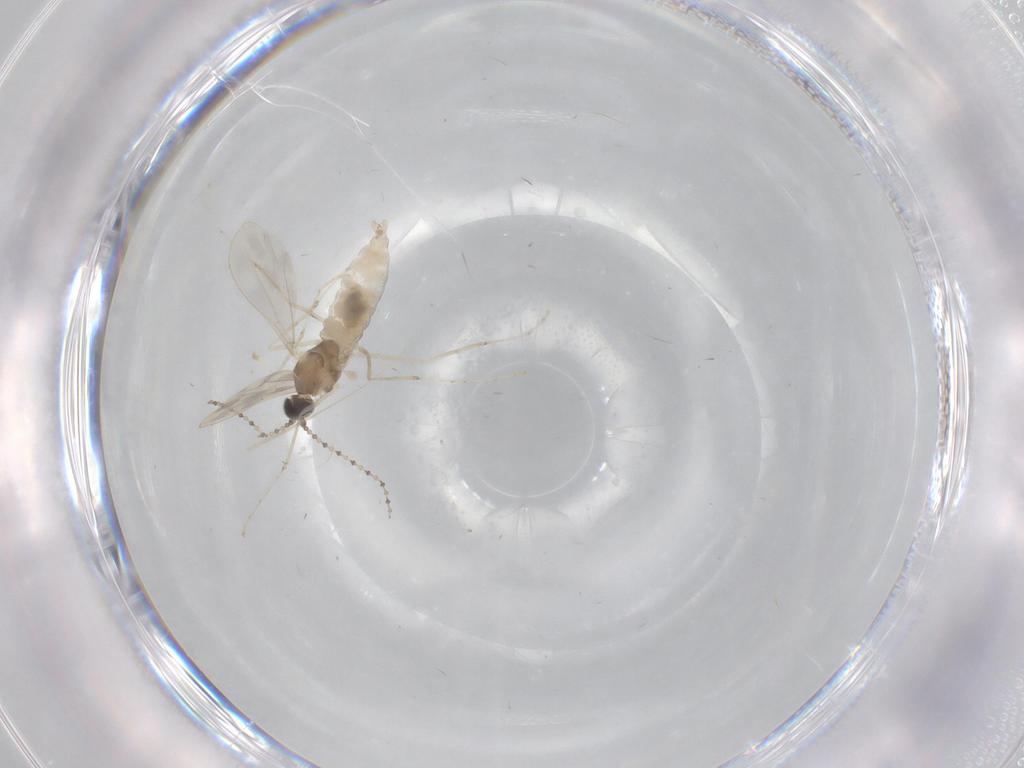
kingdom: Animalia
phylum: Arthropoda
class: Insecta
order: Diptera
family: Cecidomyiidae
